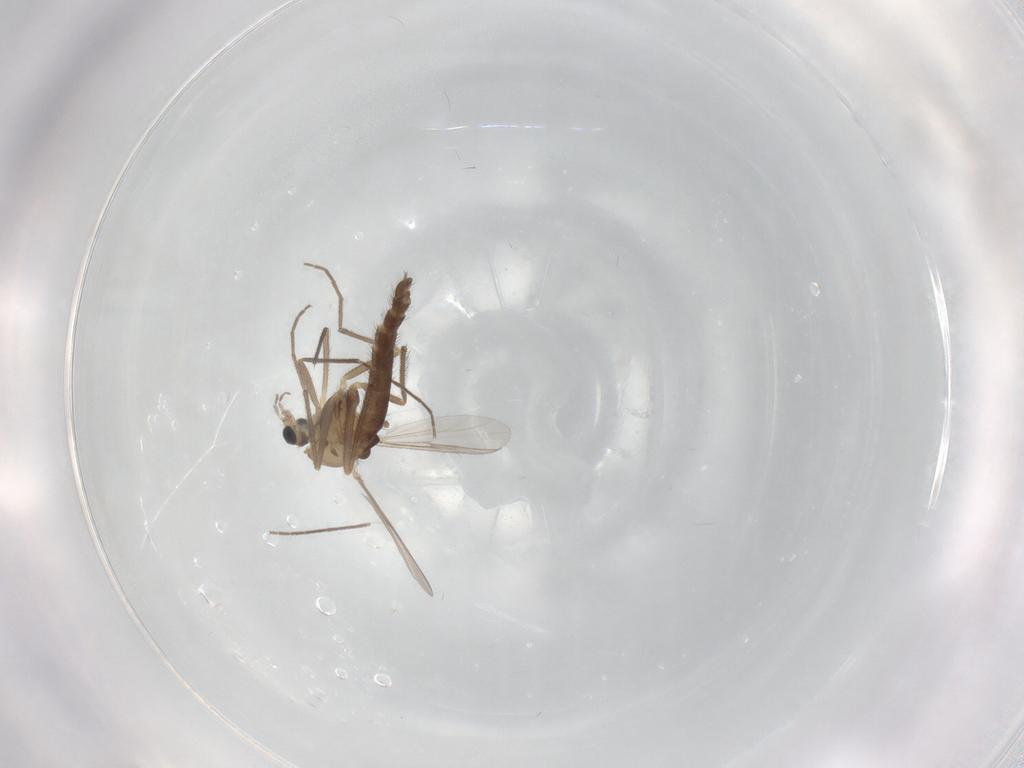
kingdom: Animalia
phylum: Arthropoda
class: Insecta
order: Diptera
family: Chironomidae
